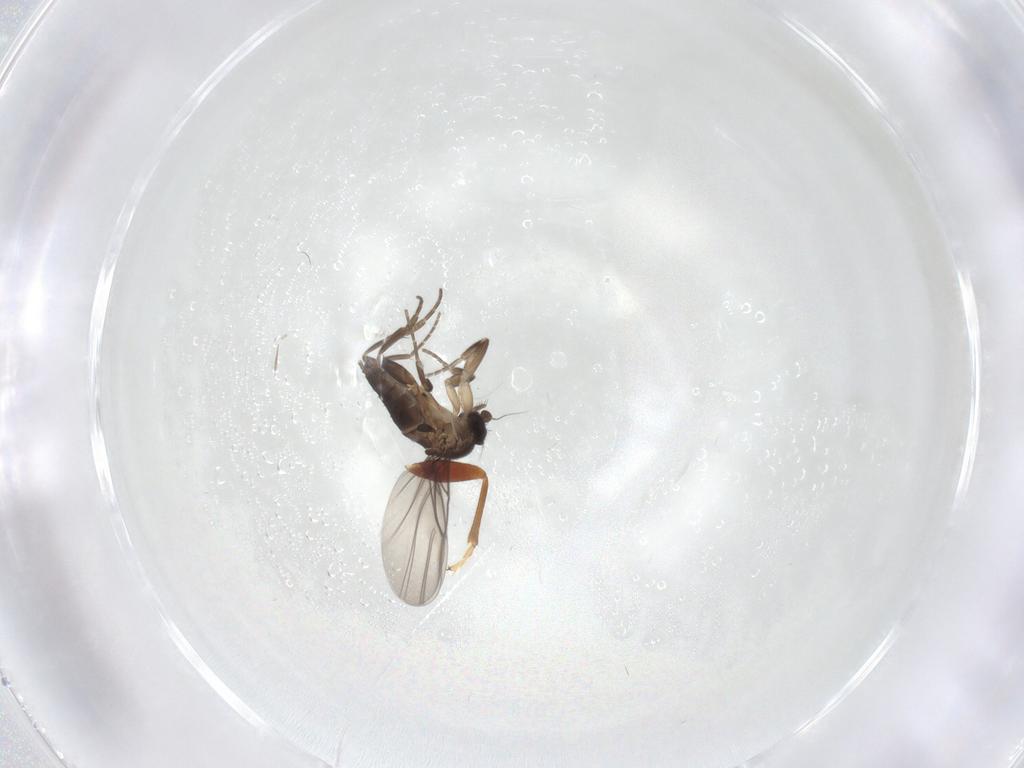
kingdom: Animalia
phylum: Arthropoda
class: Insecta
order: Diptera
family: Phoridae
